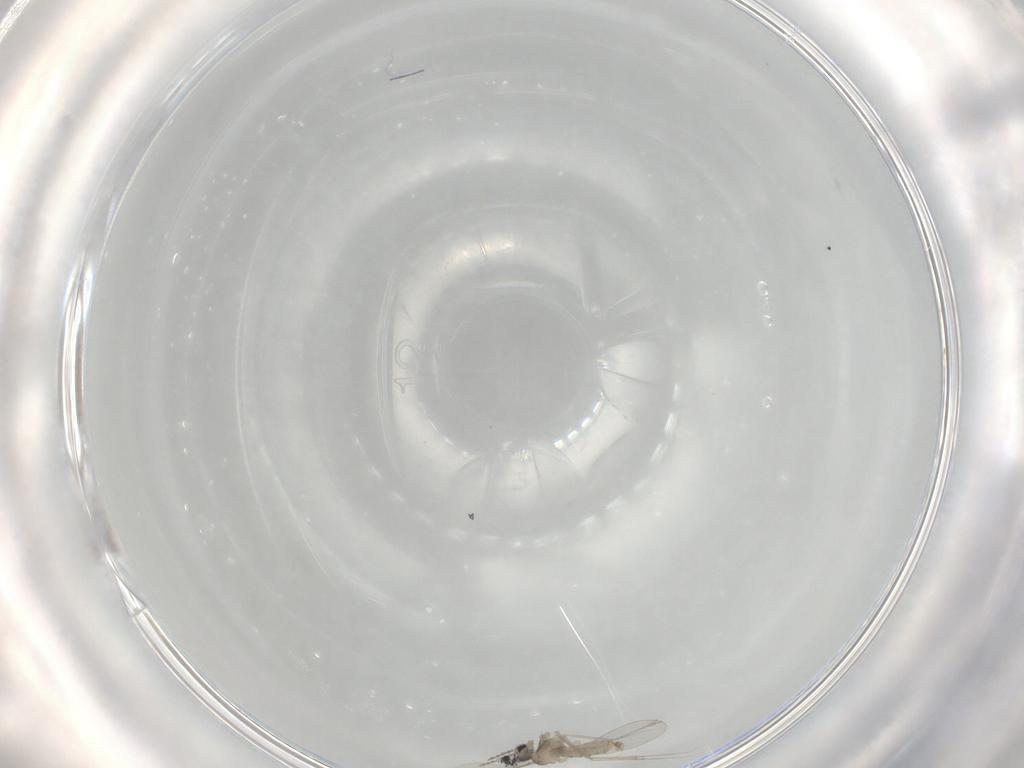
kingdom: Animalia
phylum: Arthropoda
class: Insecta
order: Diptera
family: Cecidomyiidae
